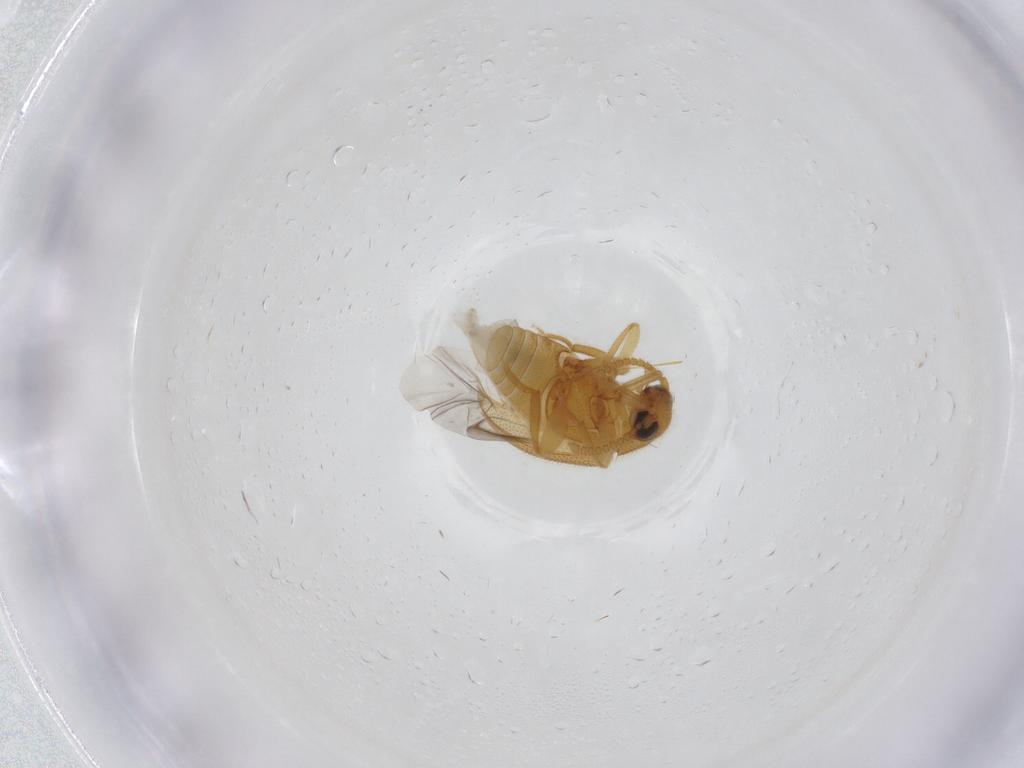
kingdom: Animalia
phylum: Arthropoda
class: Insecta
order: Coleoptera
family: Aderidae
